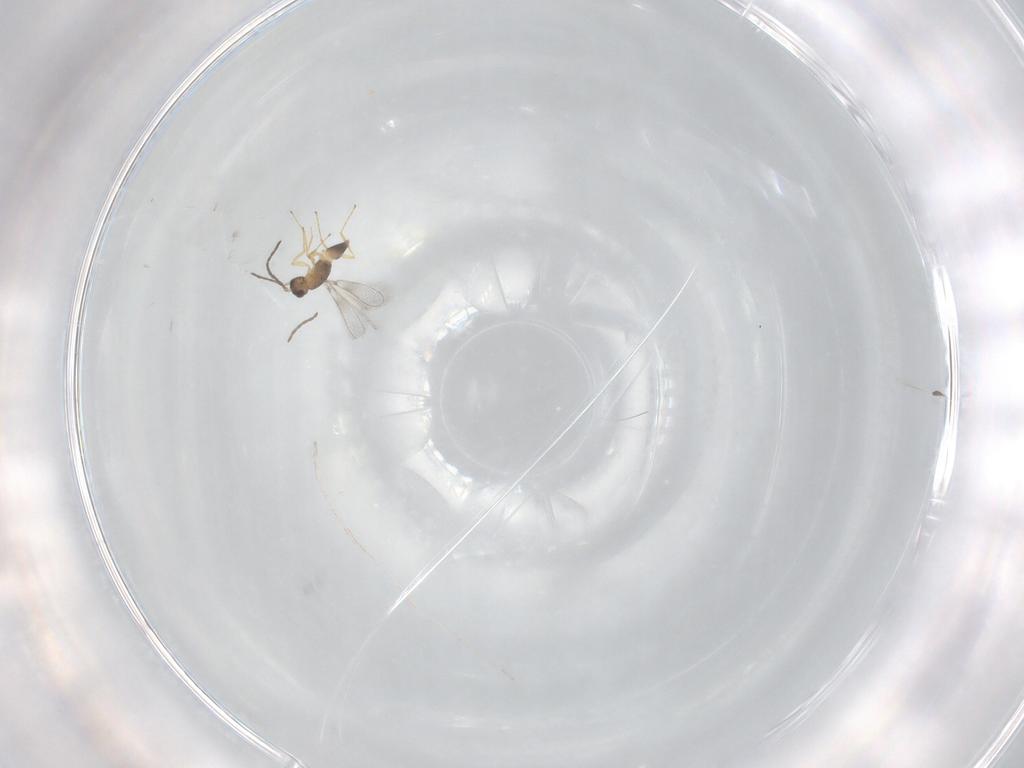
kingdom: Animalia
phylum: Arthropoda
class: Insecta
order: Hymenoptera
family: Mymaridae
